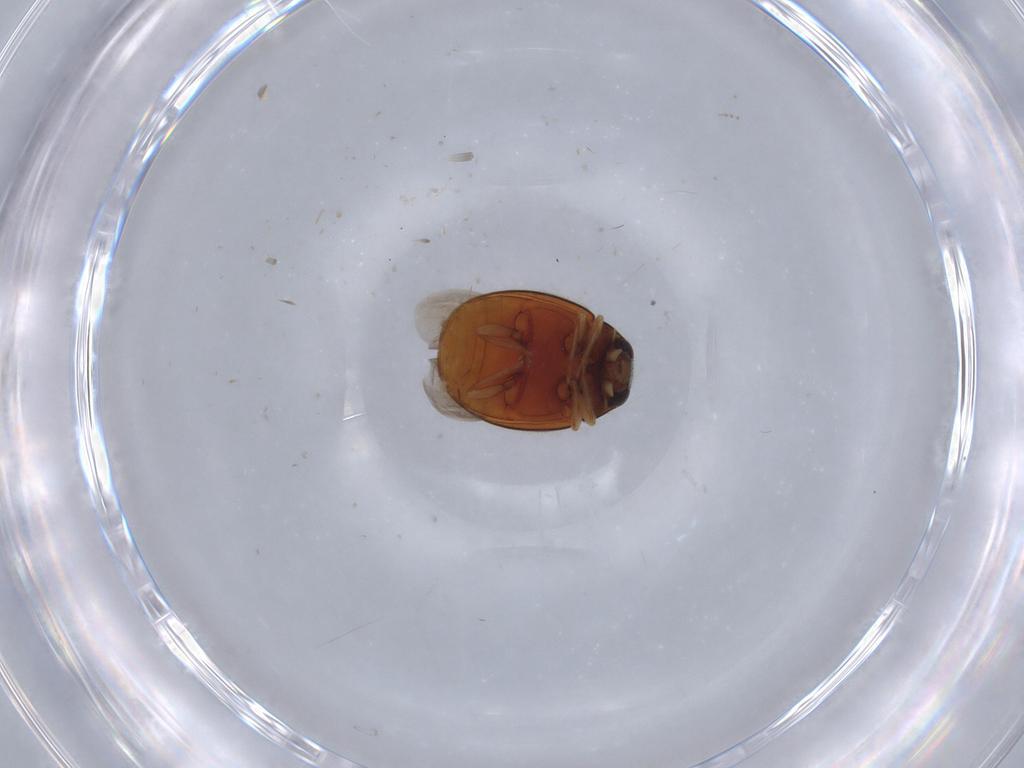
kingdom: Animalia
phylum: Arthropoda
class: Insecta
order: Coleoptera
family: Coccinellidae
